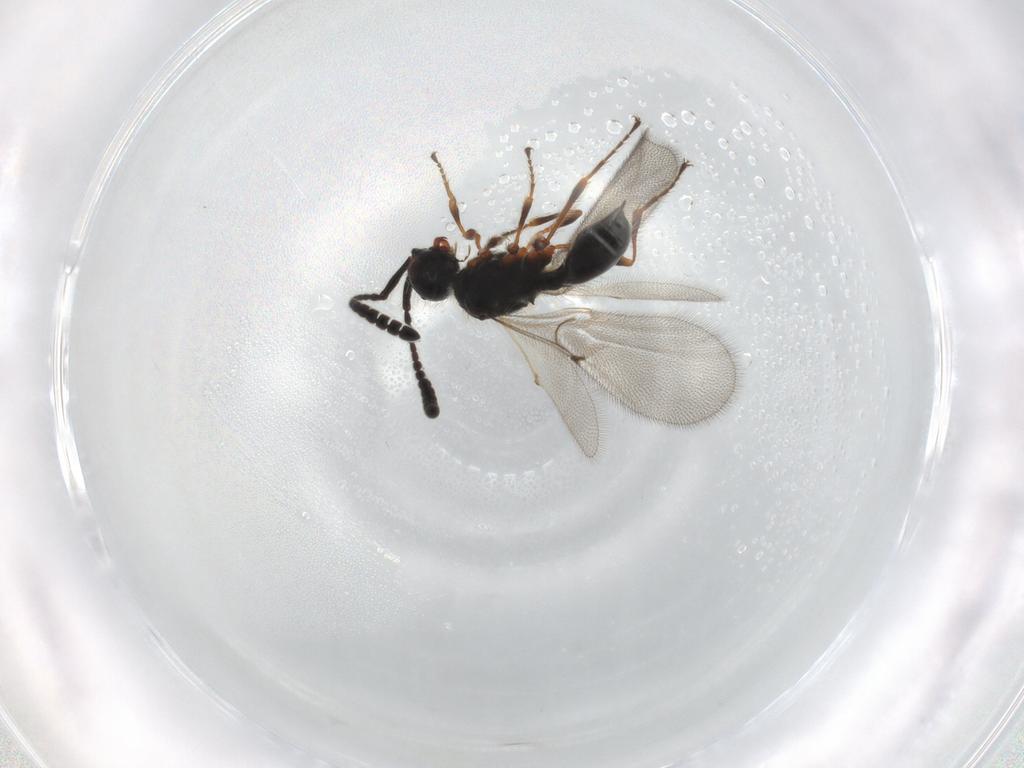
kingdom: Animalia
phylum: Arthropoda
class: Insecta
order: Hymenoptera
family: Diapriidae
